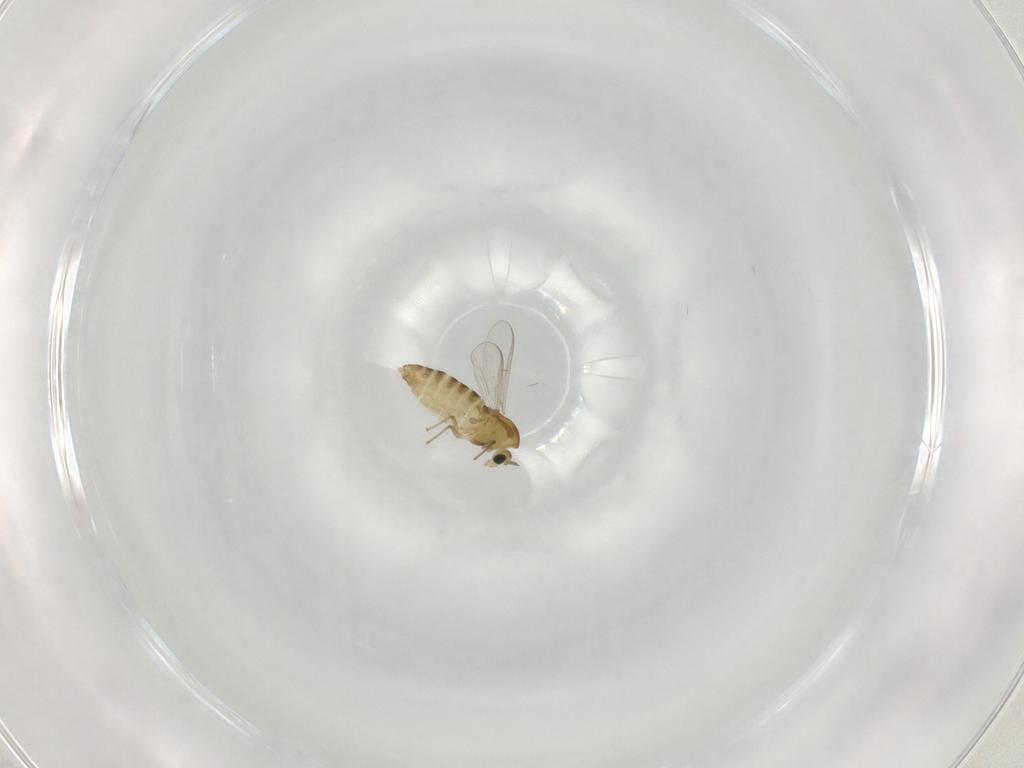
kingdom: Animalia
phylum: Arthropoda
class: Insecta
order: Diptera
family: Chironomidae
